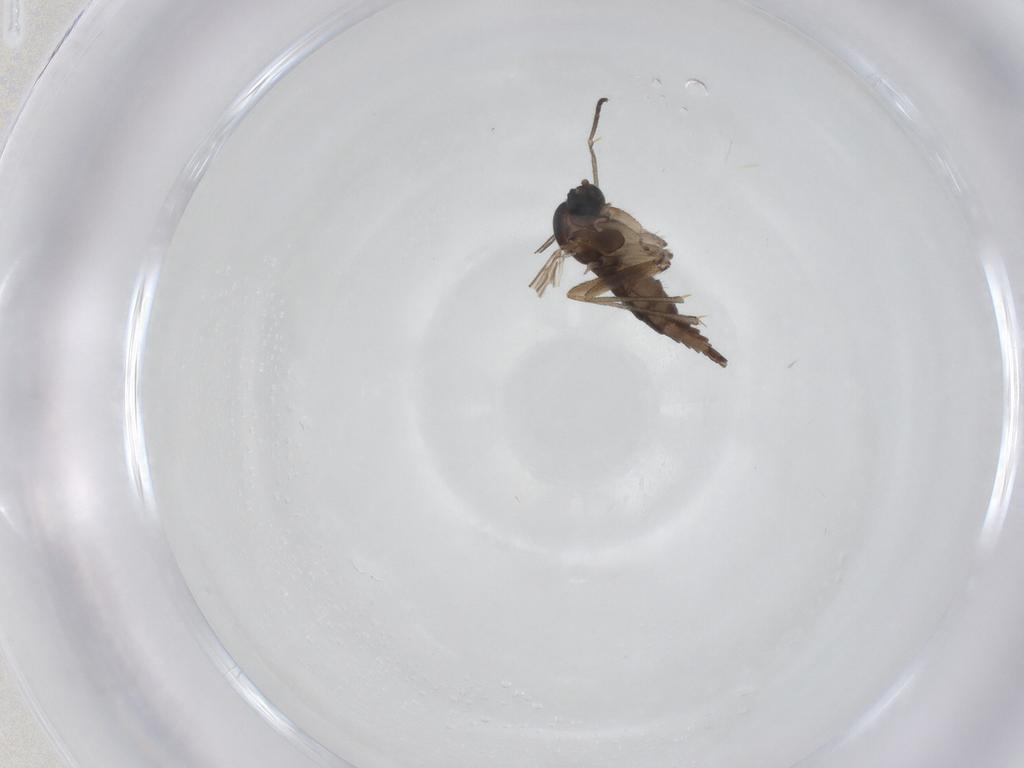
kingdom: Animalia
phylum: Arthropoda
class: Insecta
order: Diptera
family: Sciaridae
